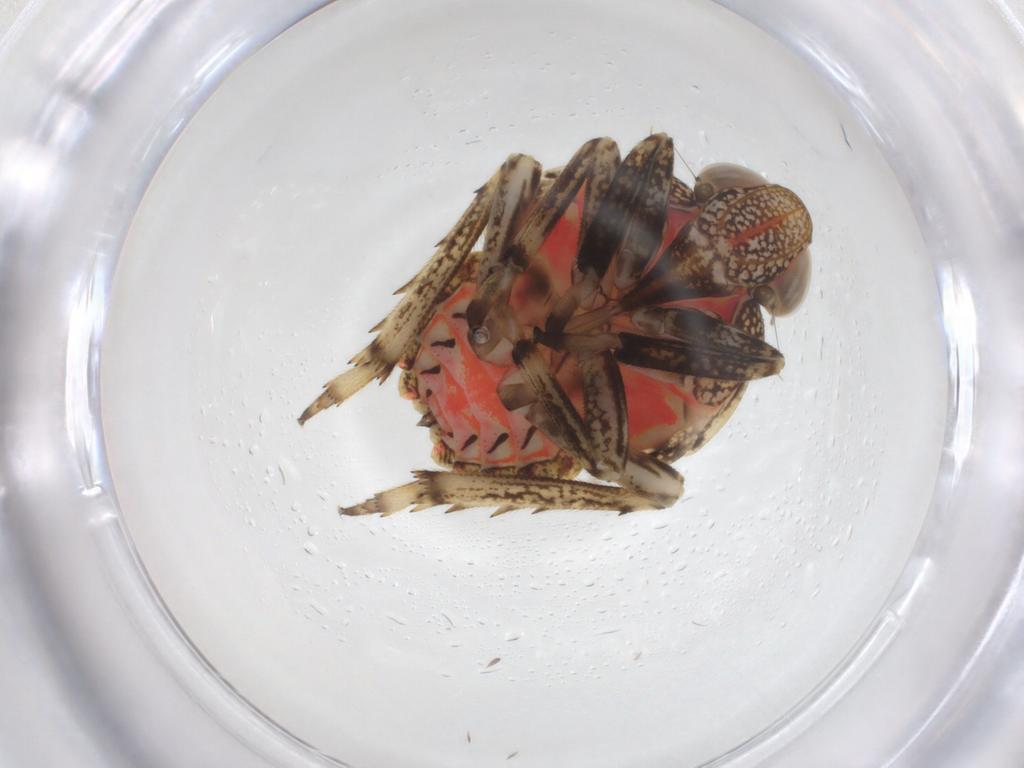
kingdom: Animalia
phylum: Arthropoda
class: Insecta
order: Hemiptera
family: Issidae
